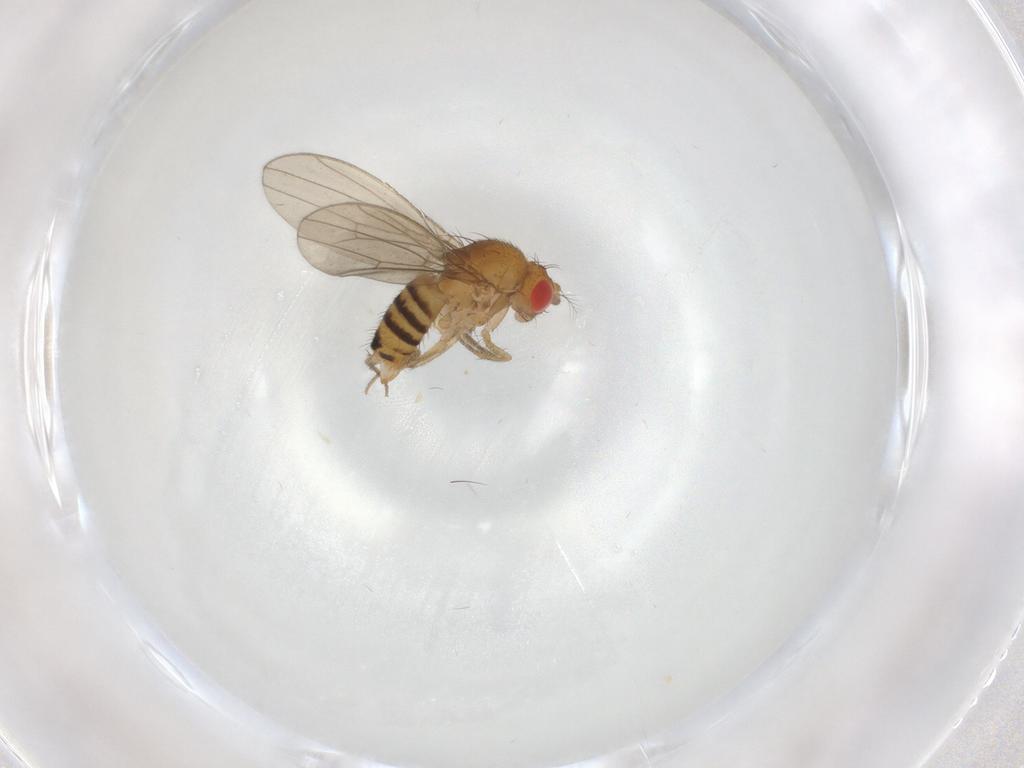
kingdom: Animalia
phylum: Arthropoda
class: Insecta
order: Diptera
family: Drosophilidae
